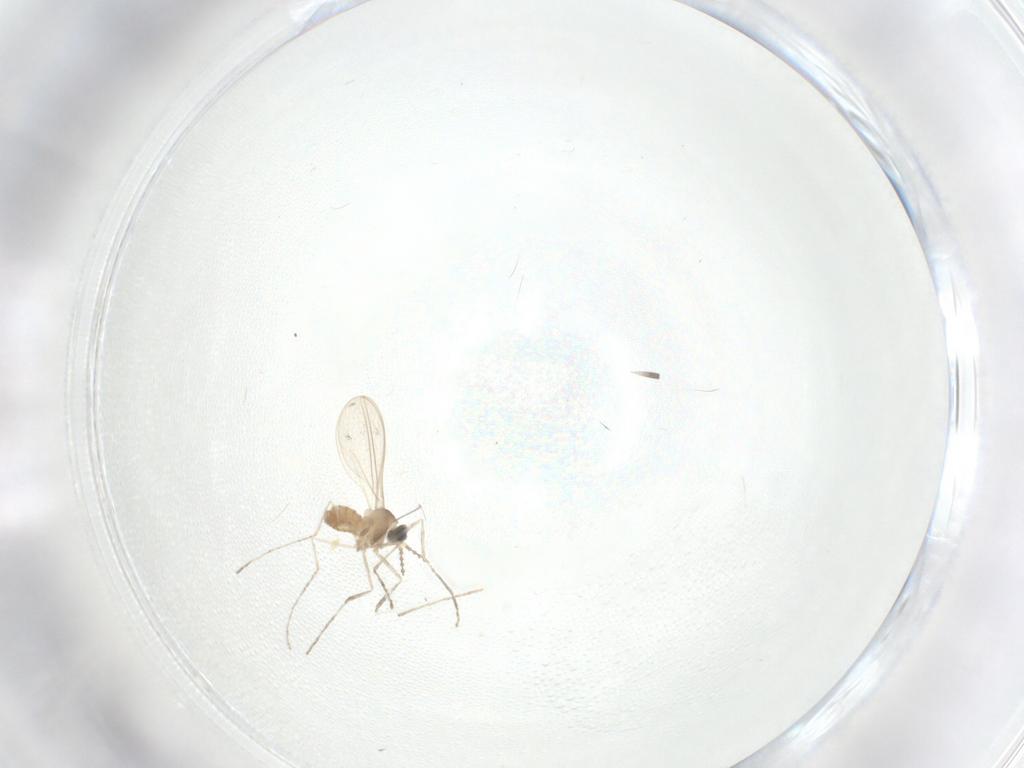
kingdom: Animalia
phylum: Arthropoda
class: Insecta
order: Diptera
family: Cecidomyiidae
